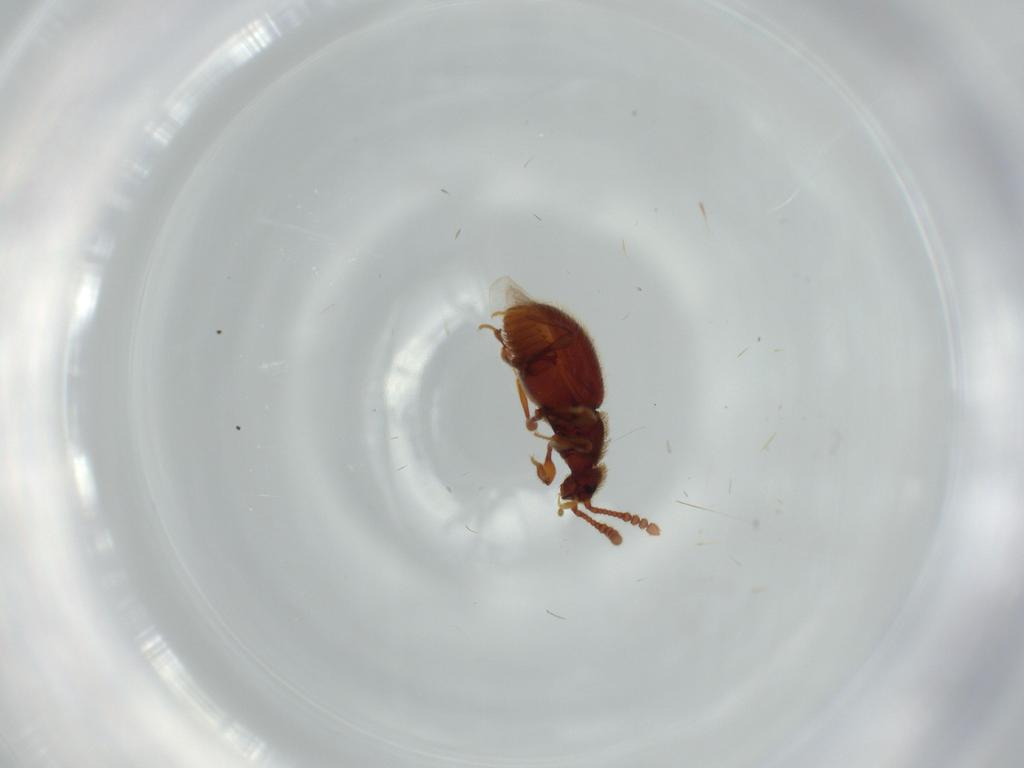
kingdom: Animalia
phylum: Arthropoda
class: Insecta
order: Coleoptera
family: Staphylinidae
